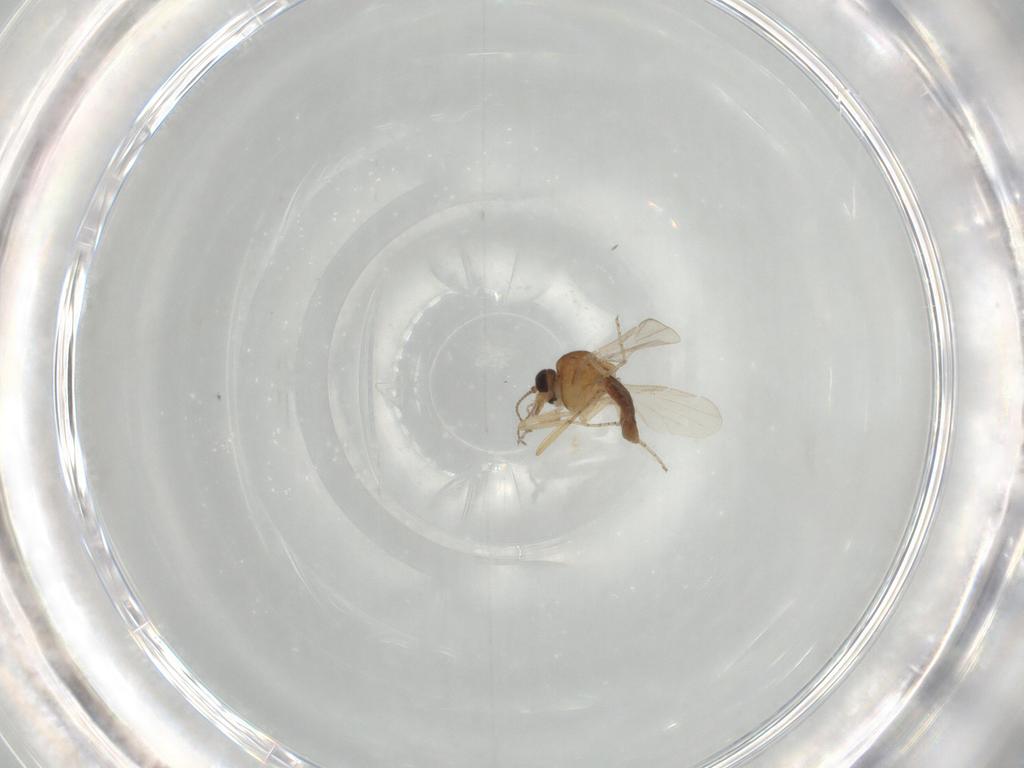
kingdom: Animalia
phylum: Arthropoda
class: Insecta
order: Diptera
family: Ceratopogonidae
